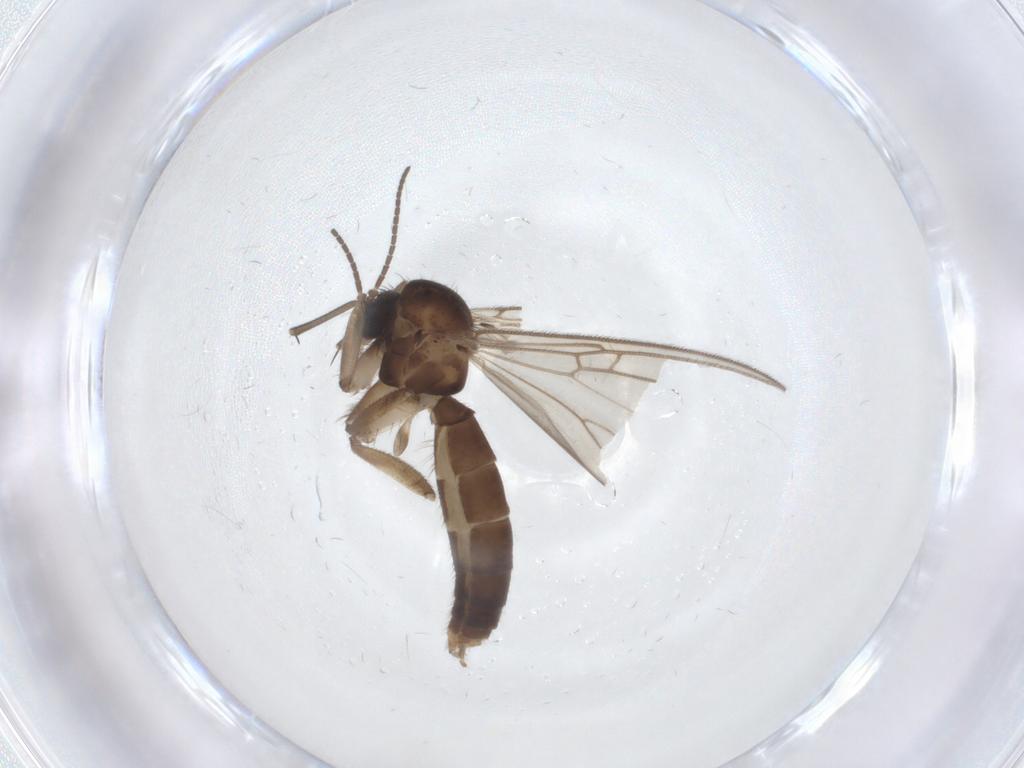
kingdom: Animalia
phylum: Arthropoda
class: Insecta
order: Diptera
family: Mycetophilidae
